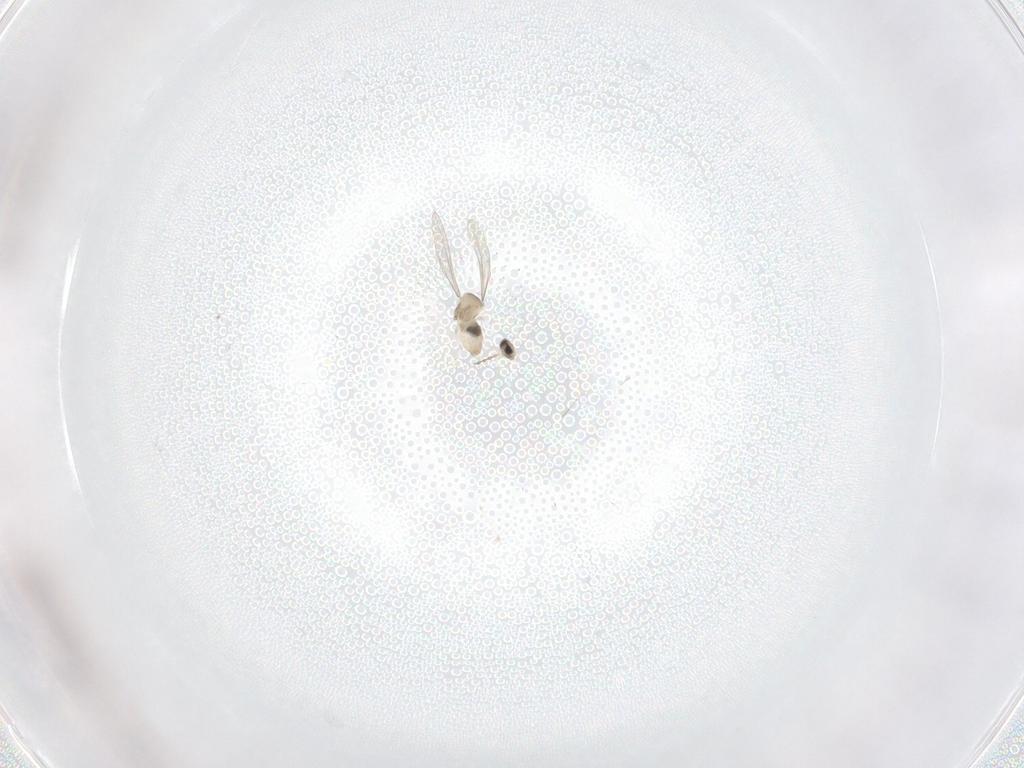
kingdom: Animalia
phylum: Arthropoda
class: Insecta
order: Diptera
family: Cecidomyiidae
